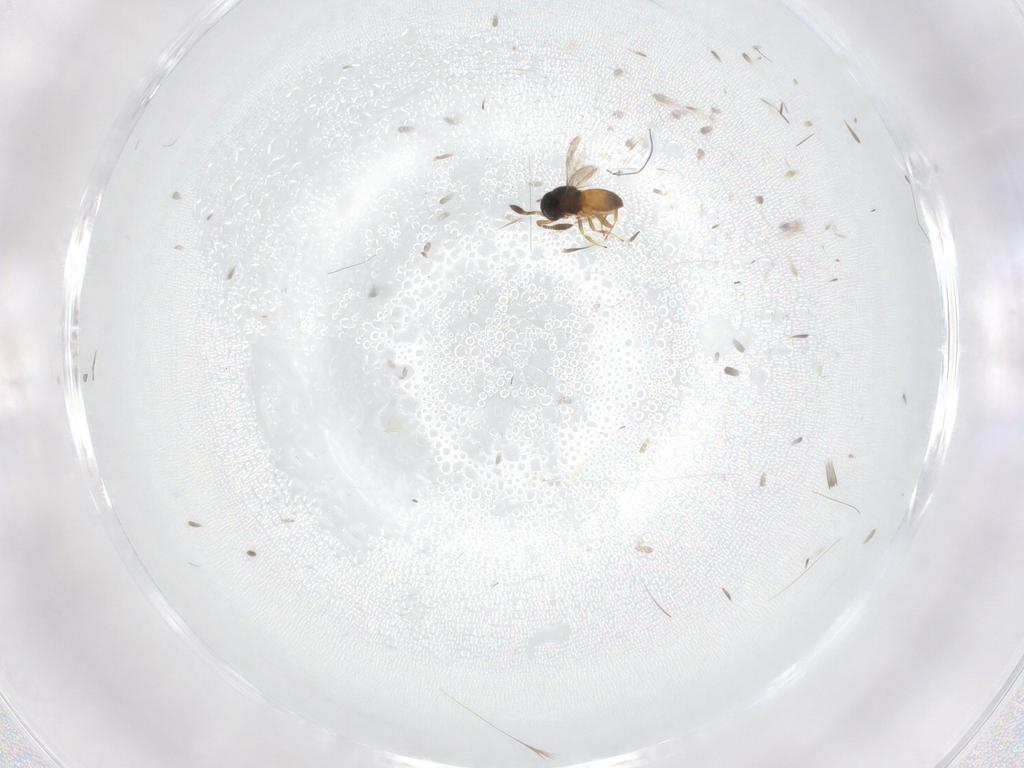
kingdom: Animalia
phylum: Arthropoda
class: Insecta
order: Hymenoptera
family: Scelionidae
